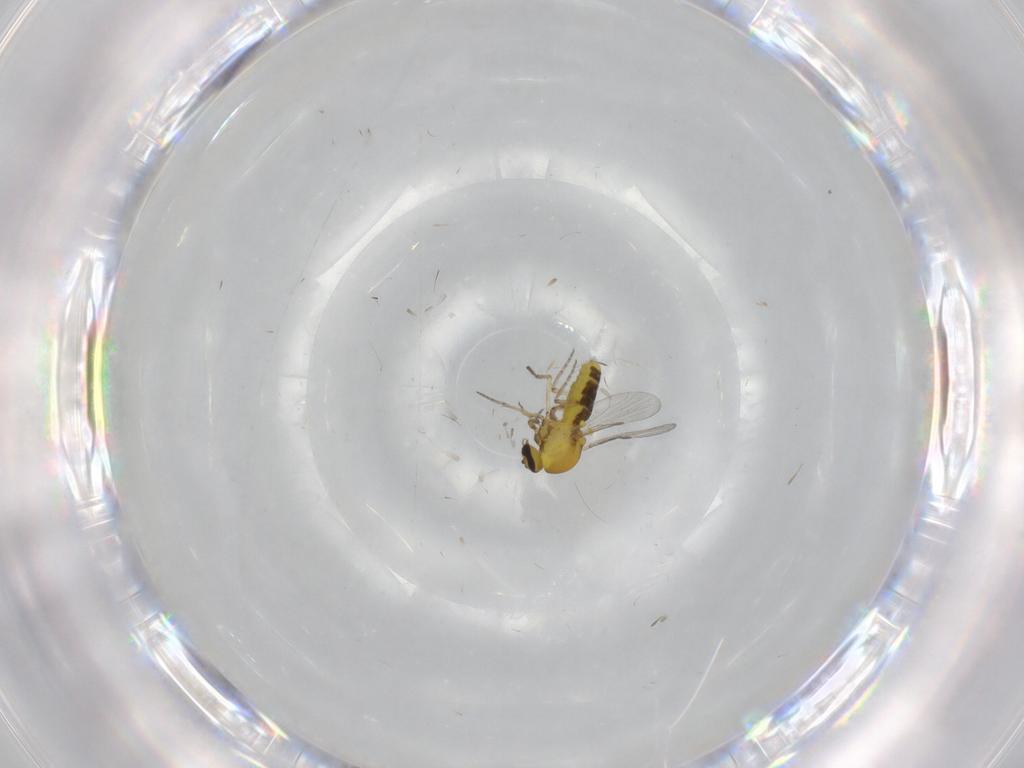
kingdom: Animalia
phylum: Arthropoda
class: Insecta
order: Diptera
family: Ceratopogonidae
